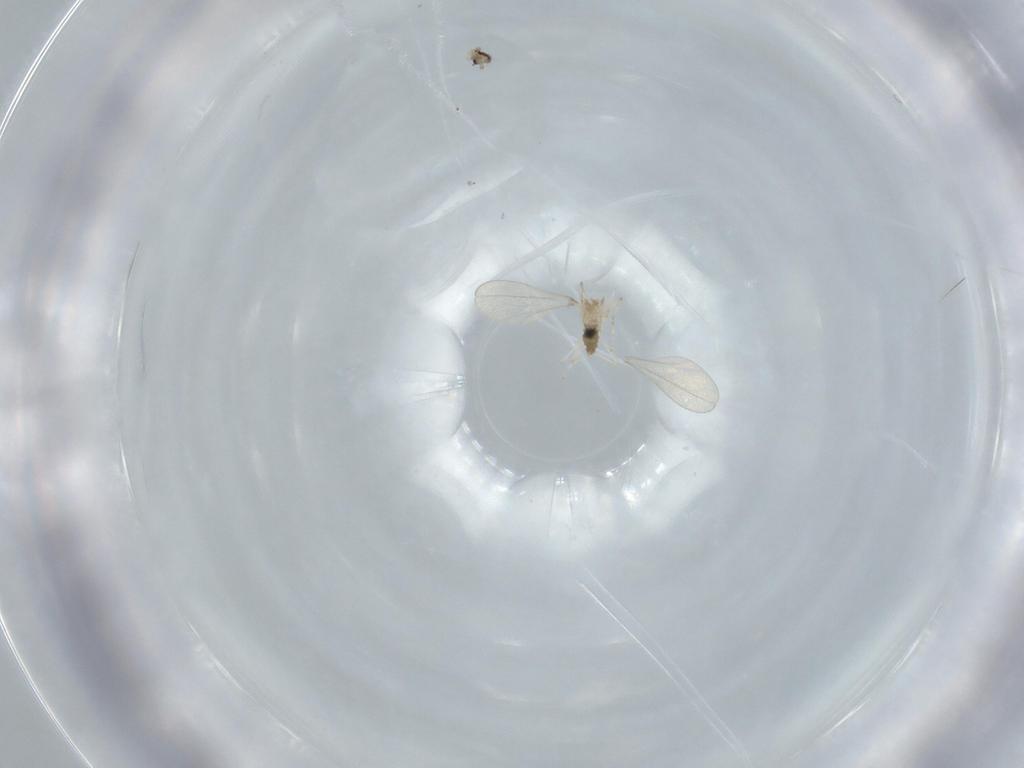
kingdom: Animalia
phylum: Arthropoda
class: Insecta
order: Diptera
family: Cecidomyiidae
